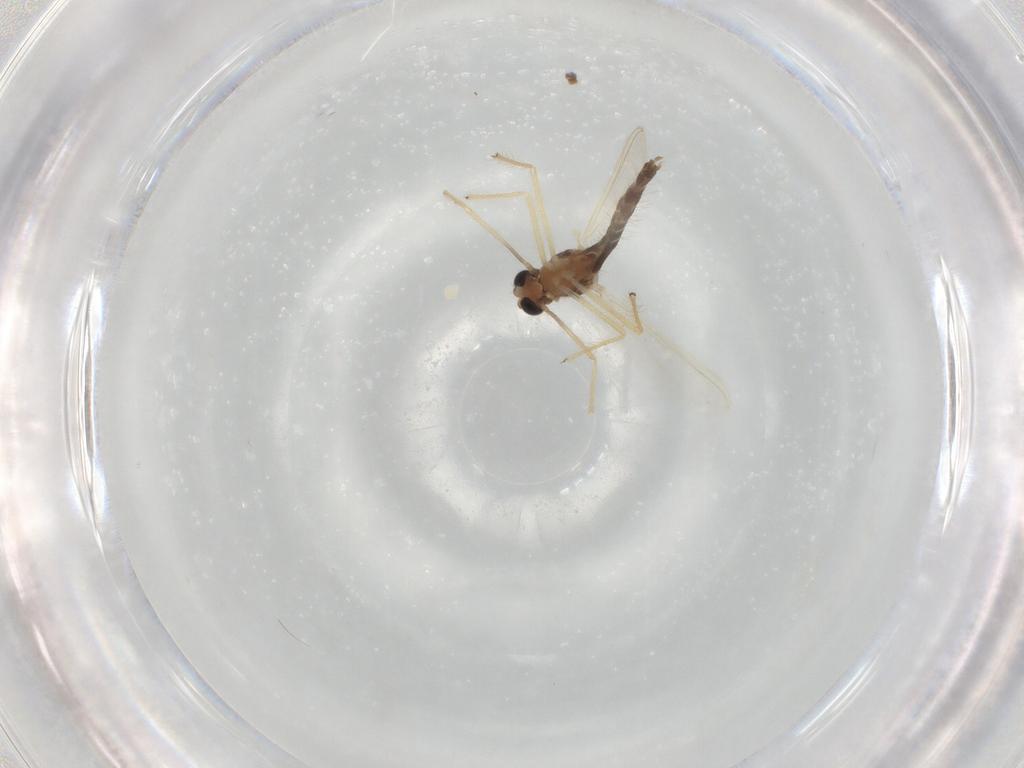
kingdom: Animalia
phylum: Arthropoda
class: Insecta
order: Diptera
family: Chironomidae
